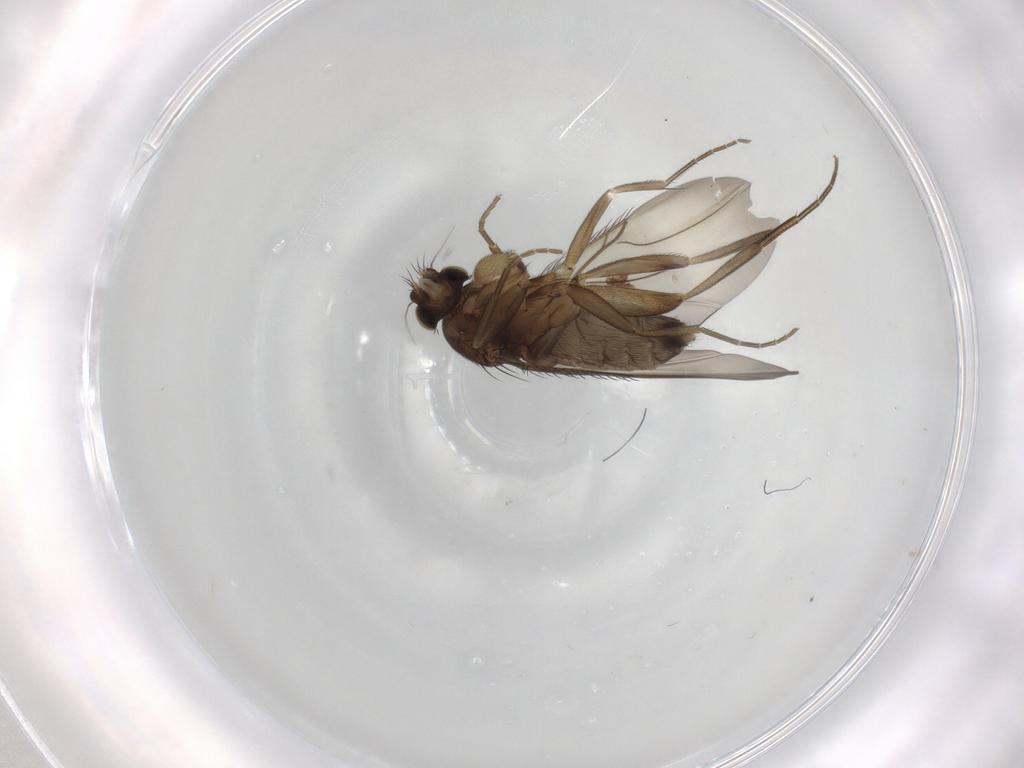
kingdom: Animalia
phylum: Arthropoda
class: Insecta
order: Diptera
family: Phoridae
